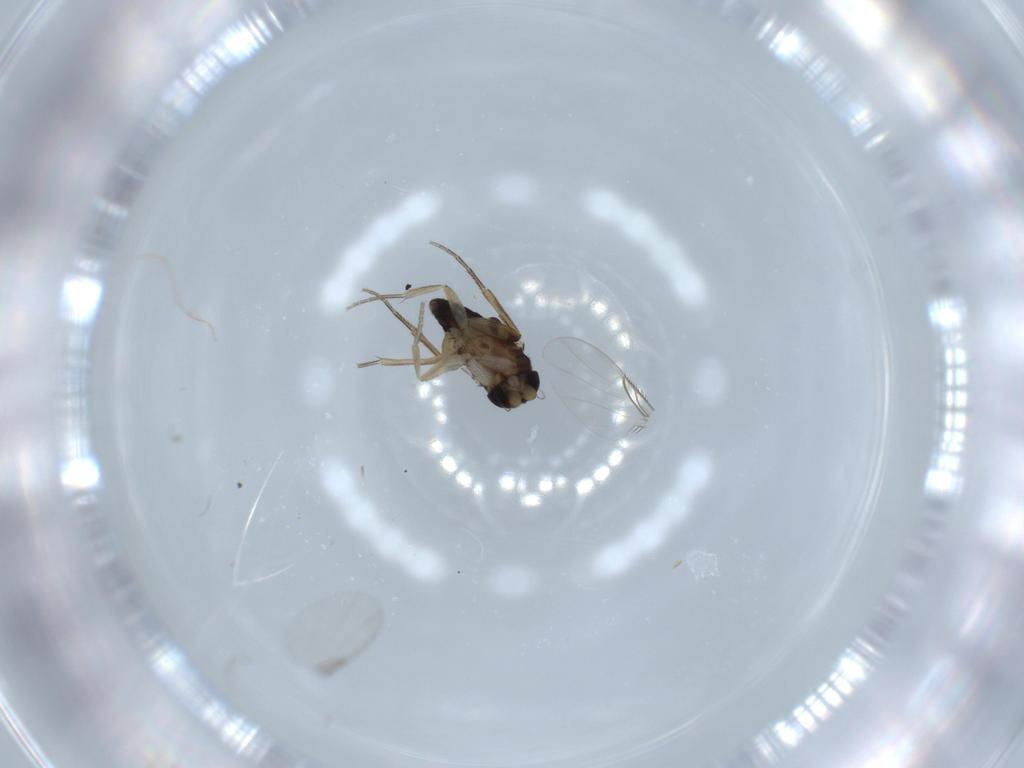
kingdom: Animalia
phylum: Arthropoda
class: Insecta
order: Diptera
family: Phoridae
